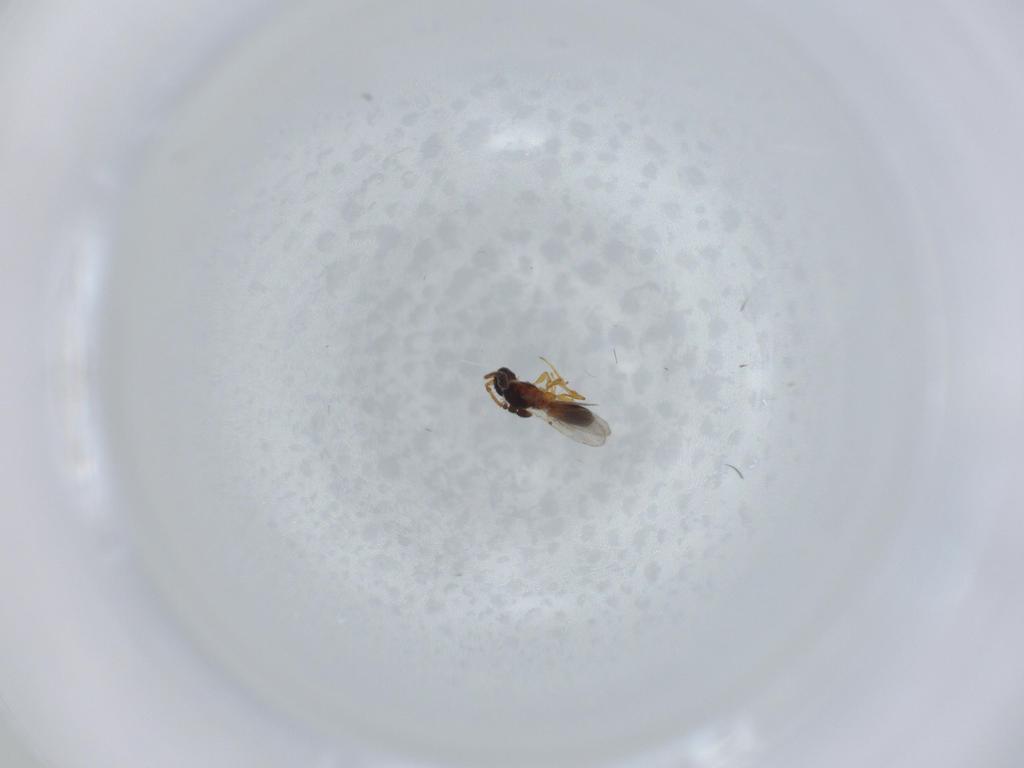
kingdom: Animalia
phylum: Arthropoda
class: Insecta
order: Hymenoptera
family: Diapriidae
